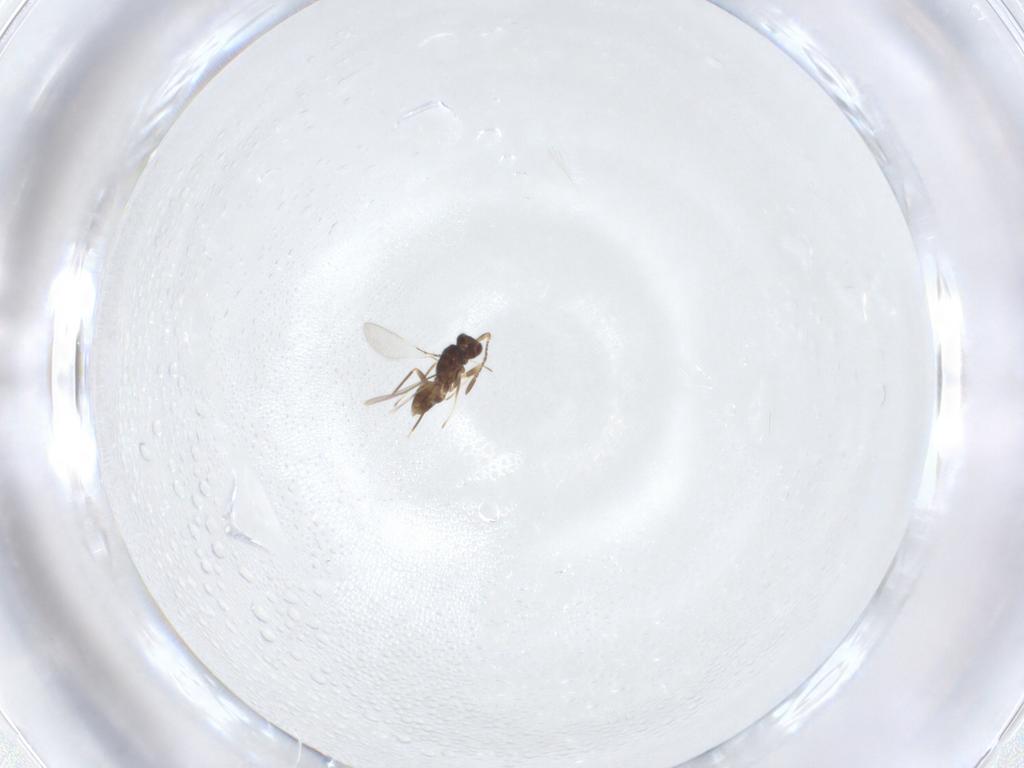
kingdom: Animalia
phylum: Arthropoda
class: Insecta
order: Hymenoptera
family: Mymaridae
